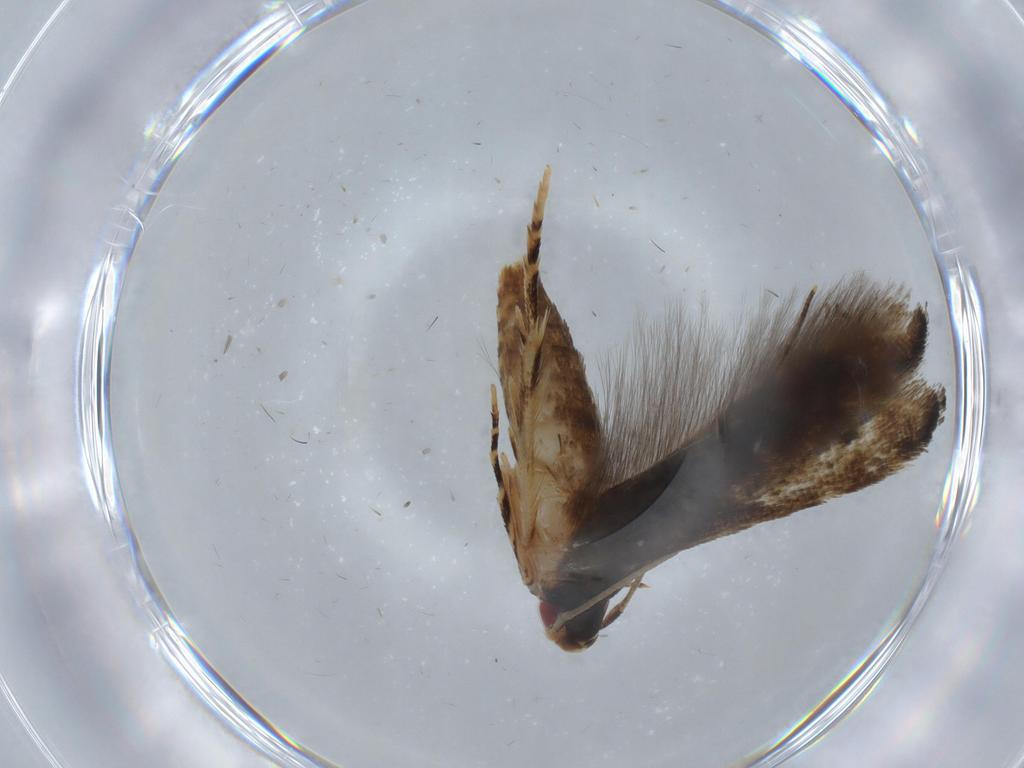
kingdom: Animalia
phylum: Arthropoda
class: Insecta
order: Lepidoptera
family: Momphidae
